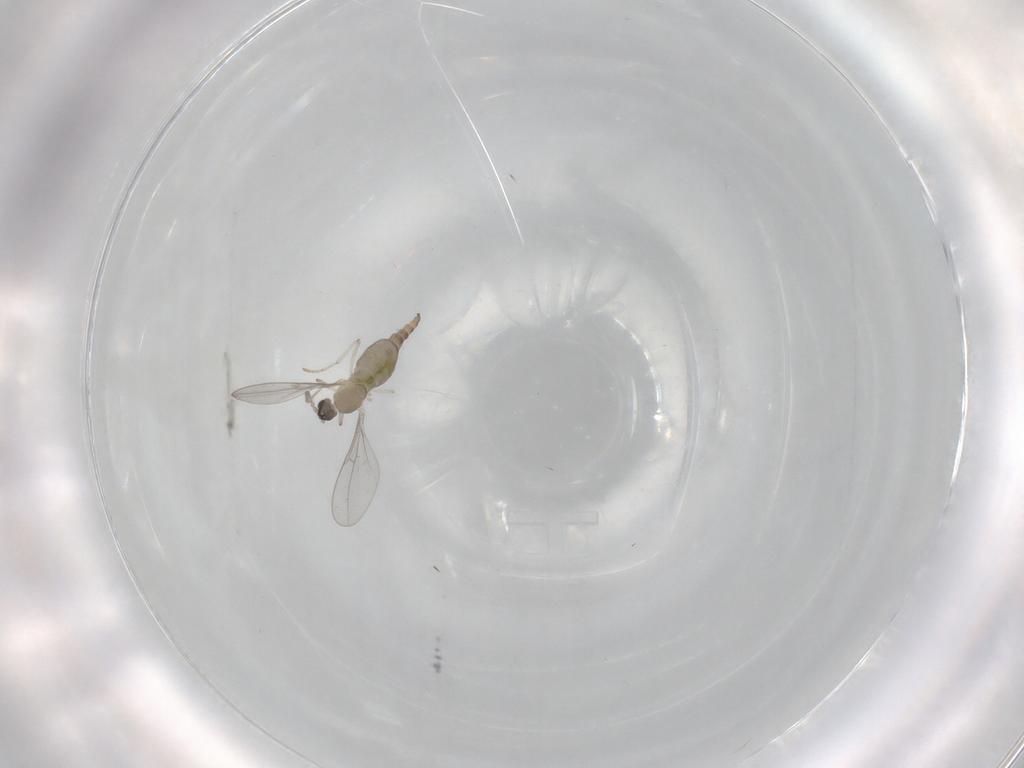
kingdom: Animalia
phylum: Arthropoda
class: Insecta
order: Diptera
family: Cecidomyiidae
